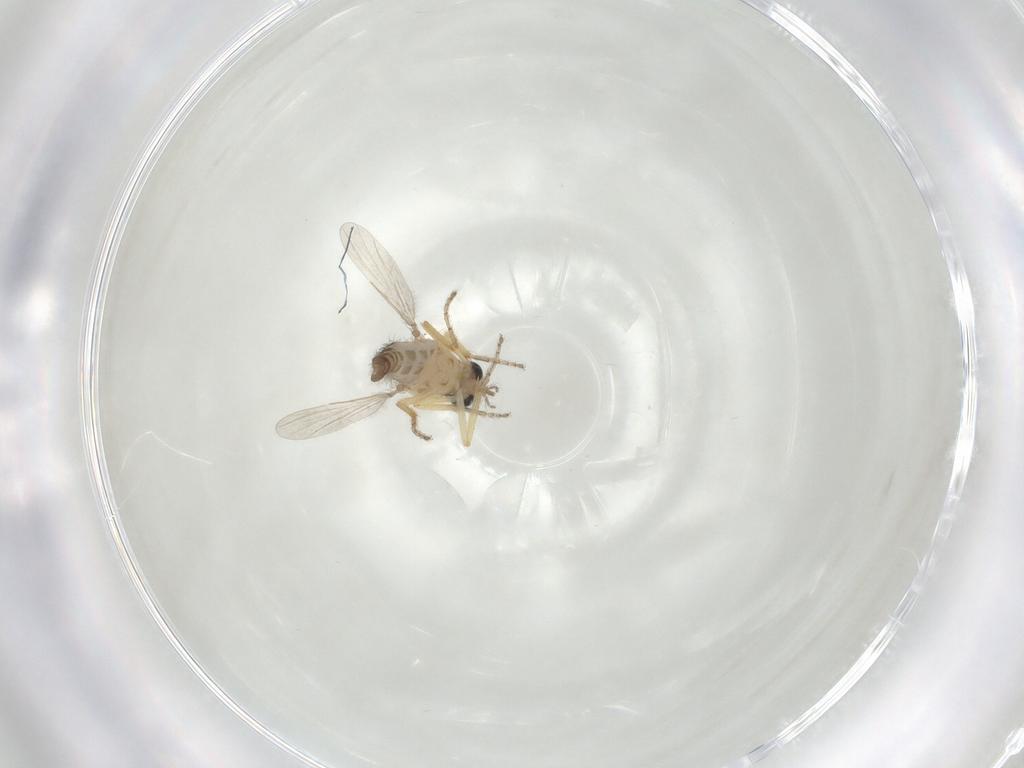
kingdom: Animalia
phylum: Arthropoda
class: Insecta
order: Diptera
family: Ceratopogonidae
